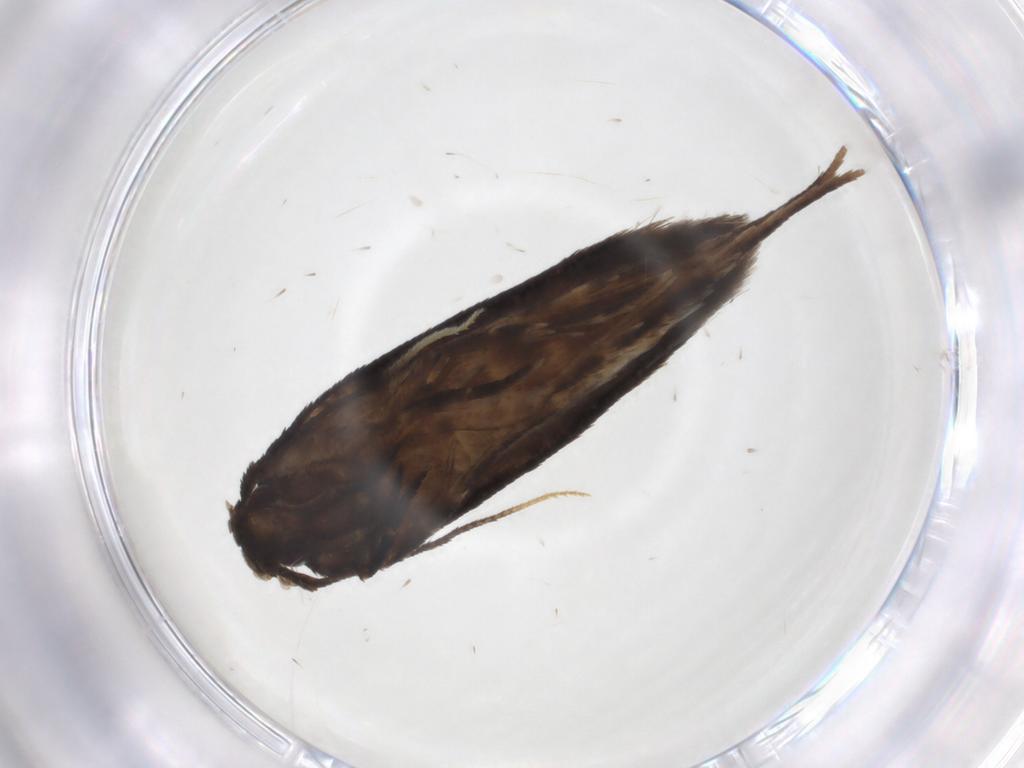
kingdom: Animalia
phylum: Arthropoda
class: Insecta
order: Lepidoptera
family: Crambidae
